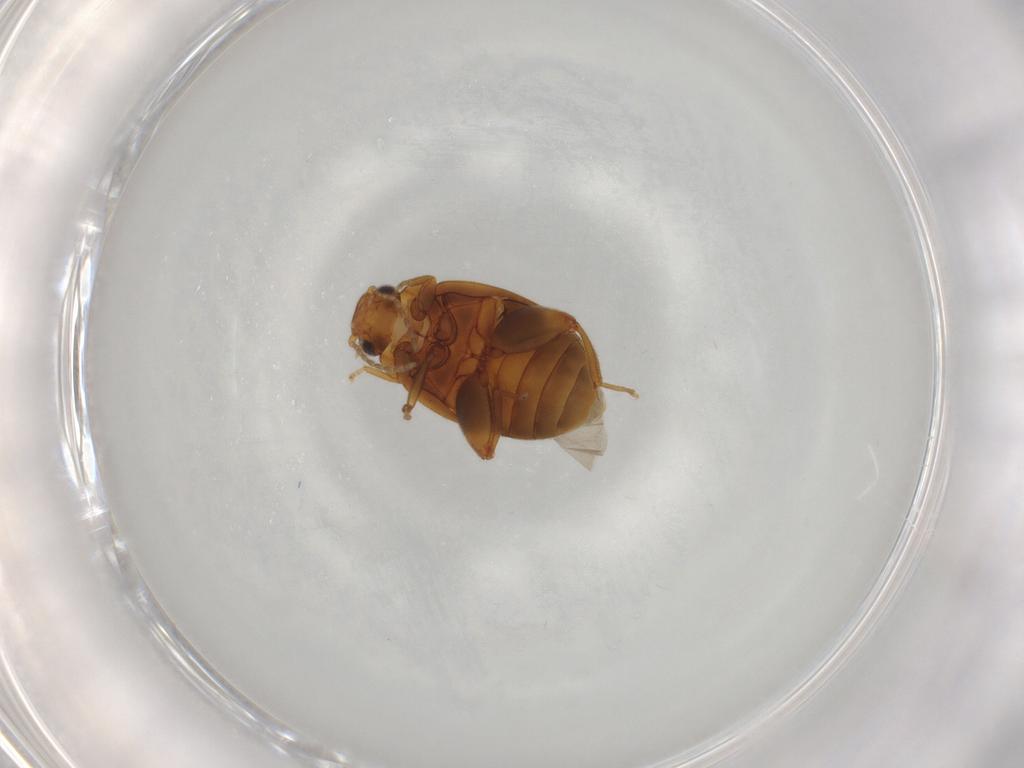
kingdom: Animalia
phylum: Arthropoda
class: Insecta
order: Coleoptera
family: Scirtidae
